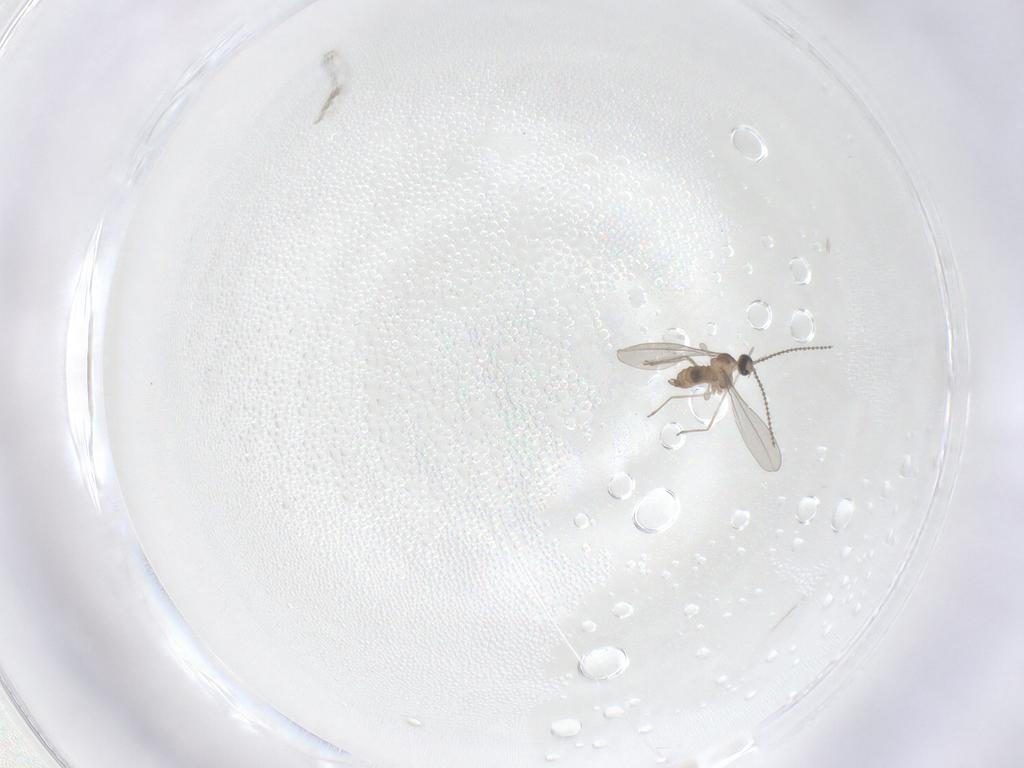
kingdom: Animalia
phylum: Arthropoda
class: Insecta
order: Diptera
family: Cecidomyiidae
